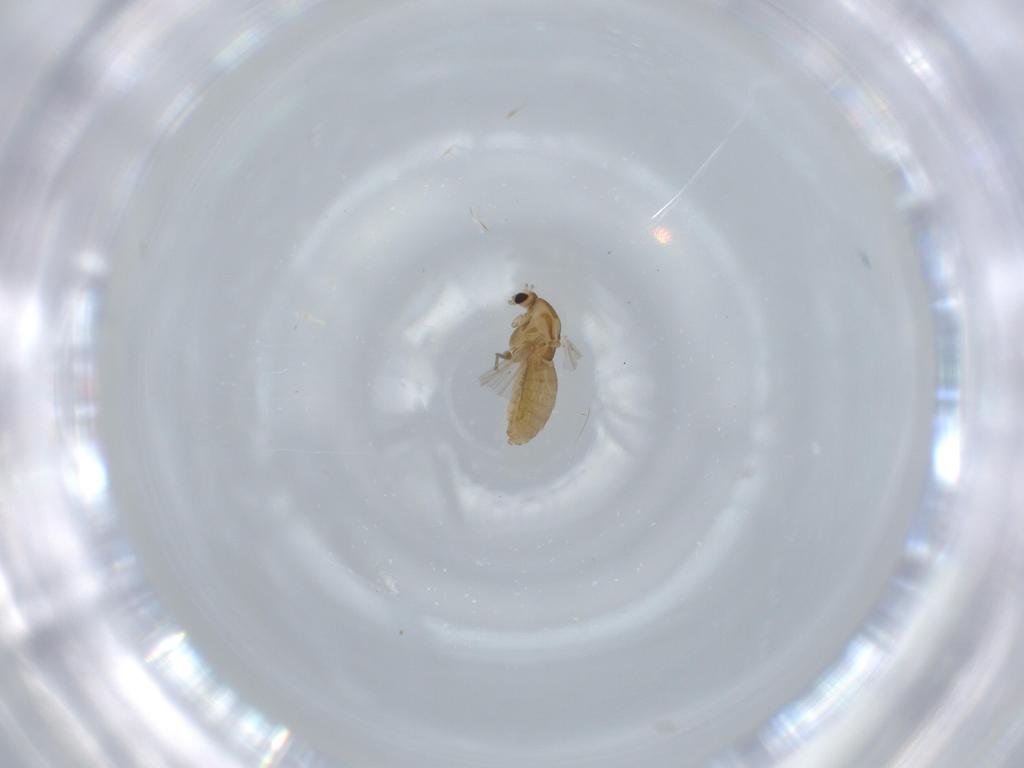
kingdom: Animalia
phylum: Arthropoda
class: Insecta
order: Diptera
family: Chironomidae
